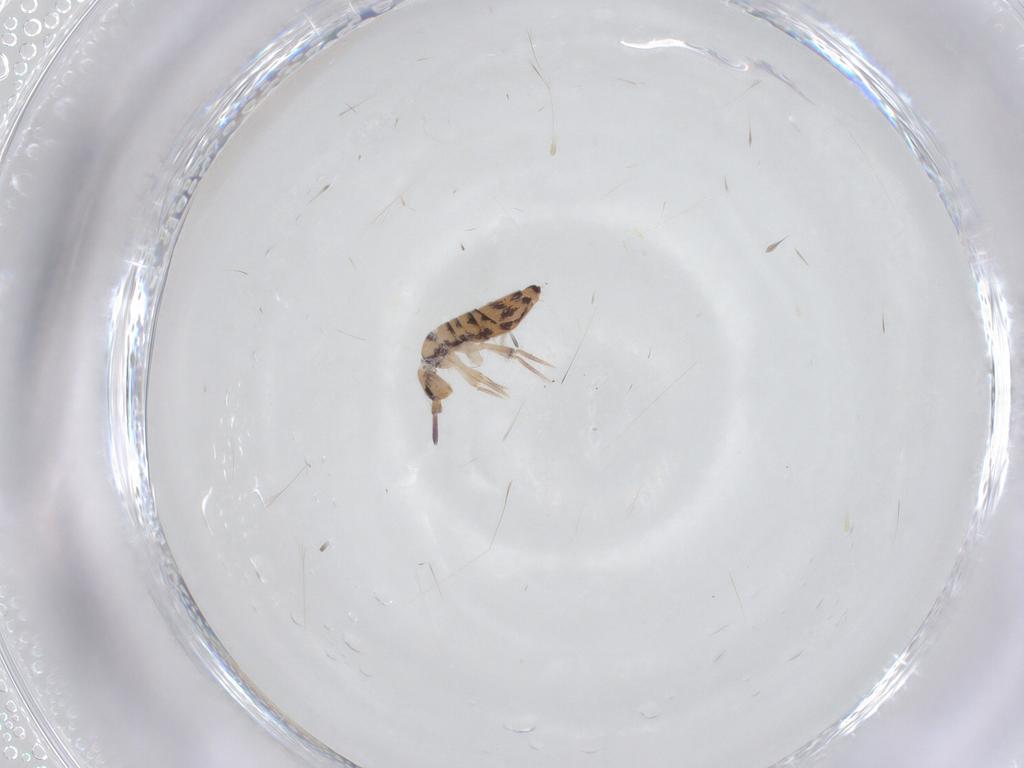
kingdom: Animalia
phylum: Arthropoda
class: Collembola
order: Entomobryomorpha
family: Entomobryidae
